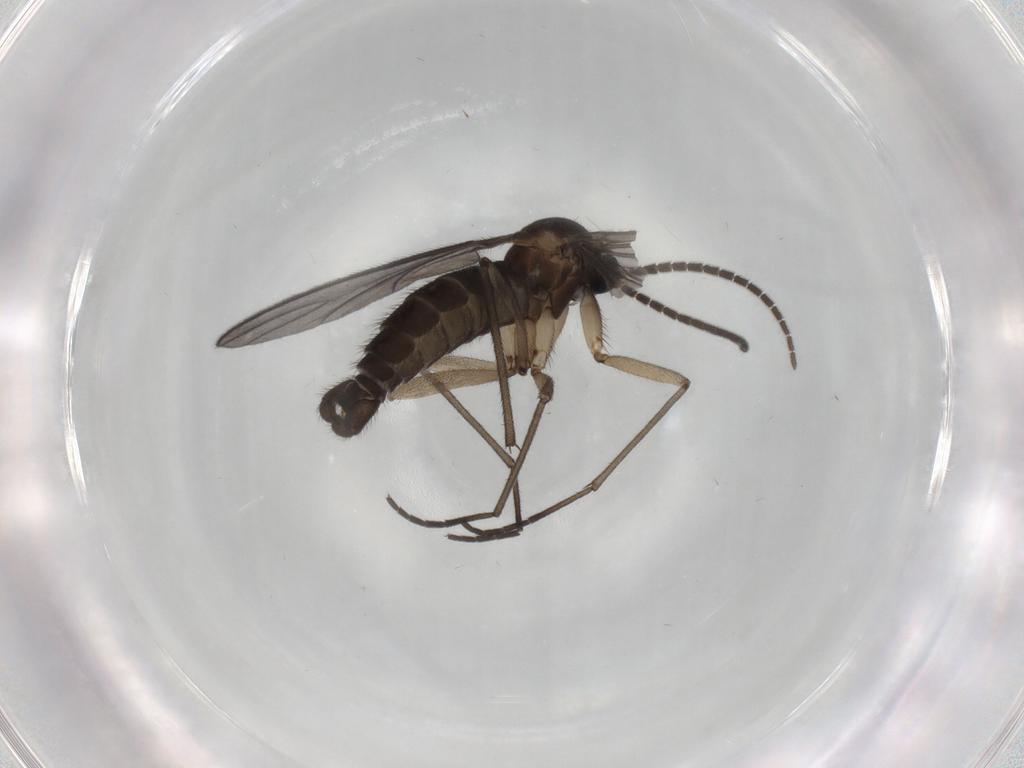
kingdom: Animalia
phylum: Arthropoda
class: Insecta
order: Diptera
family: Sciaridae
